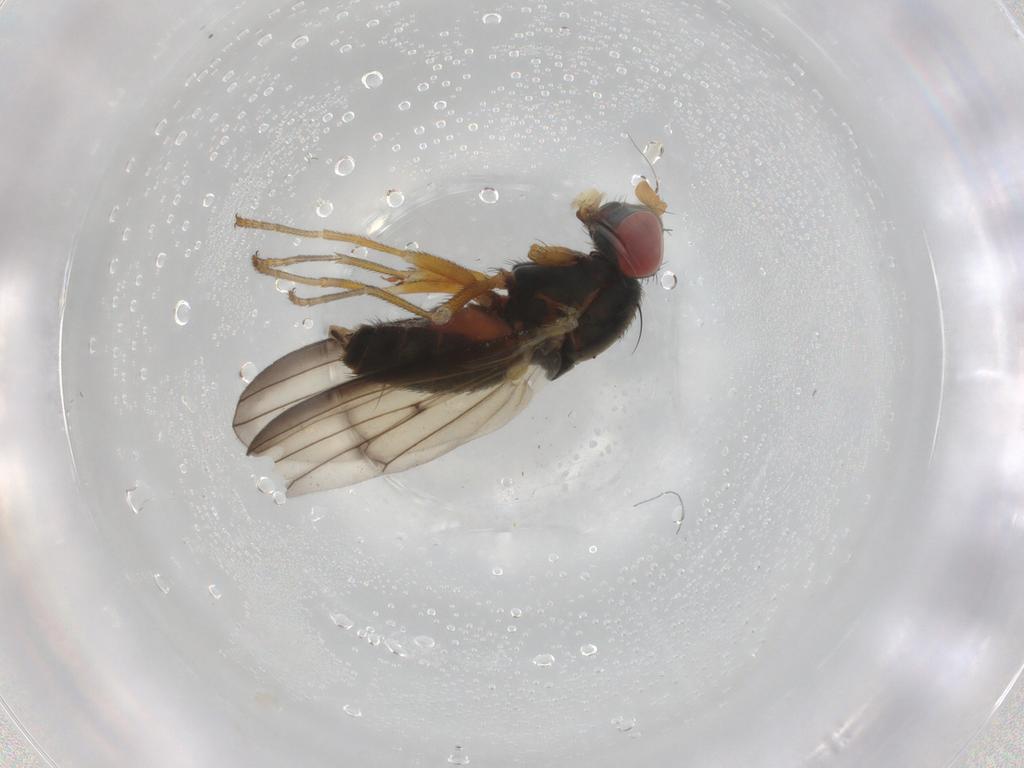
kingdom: Animalia
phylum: Arthropoda
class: Insecta
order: Diptera
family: Chamaemyiidae
